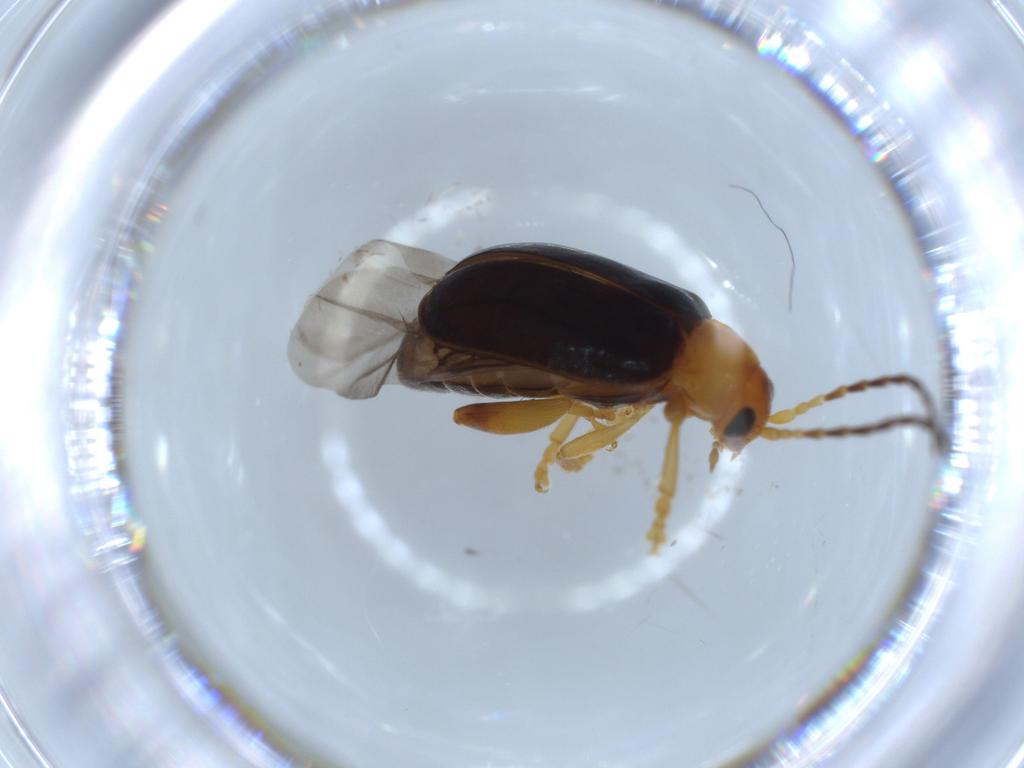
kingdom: Animalia
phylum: Arthropoda
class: Insecta
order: Coleoptera
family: Chrysomelidae
